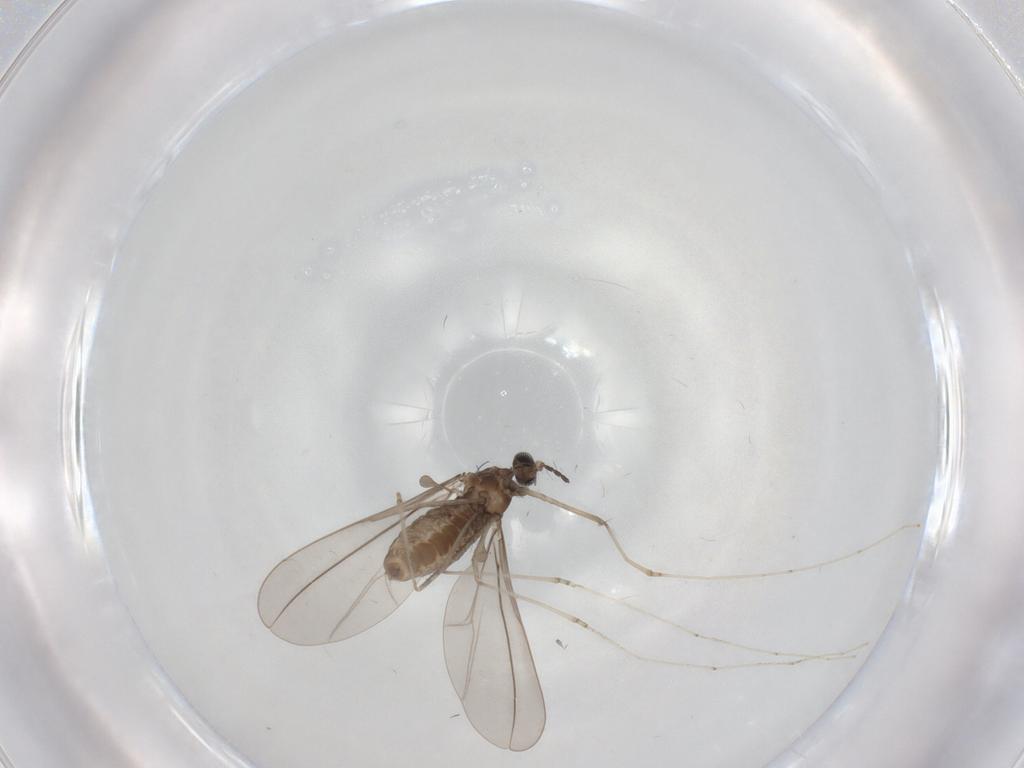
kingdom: Animalia
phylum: Arthropoda
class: Insecta
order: Diptera
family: Cecidomyiidae
